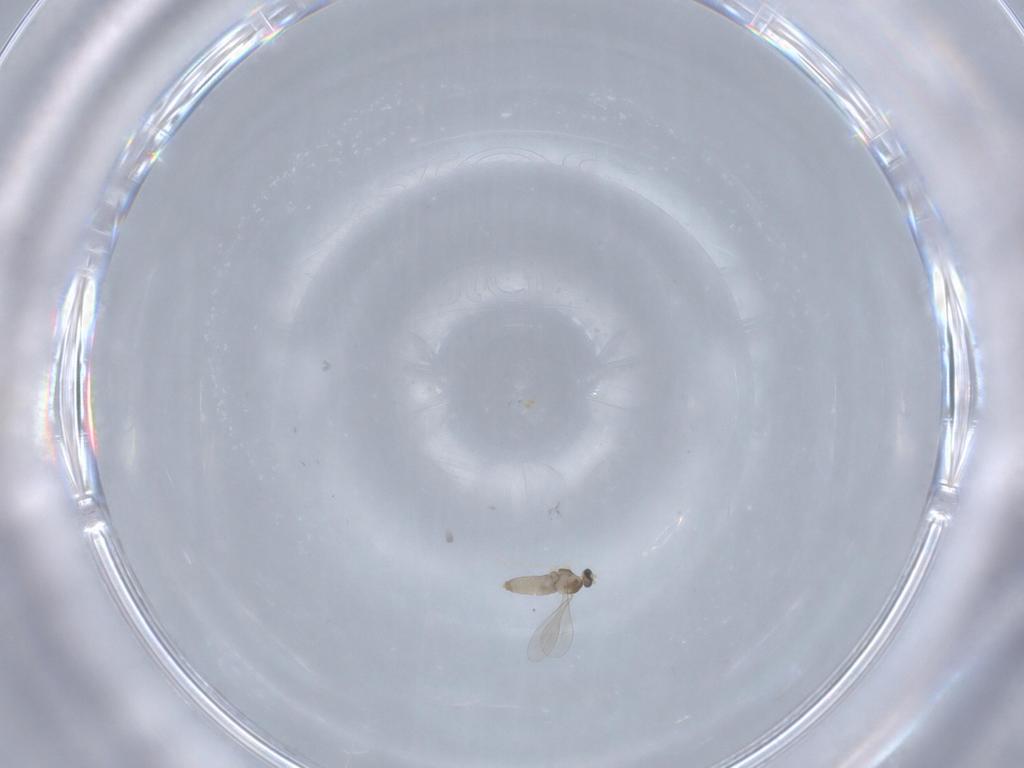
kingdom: Animalia
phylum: Arthropoda
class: Insecta
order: Diptera
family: Cecidomyiidae
